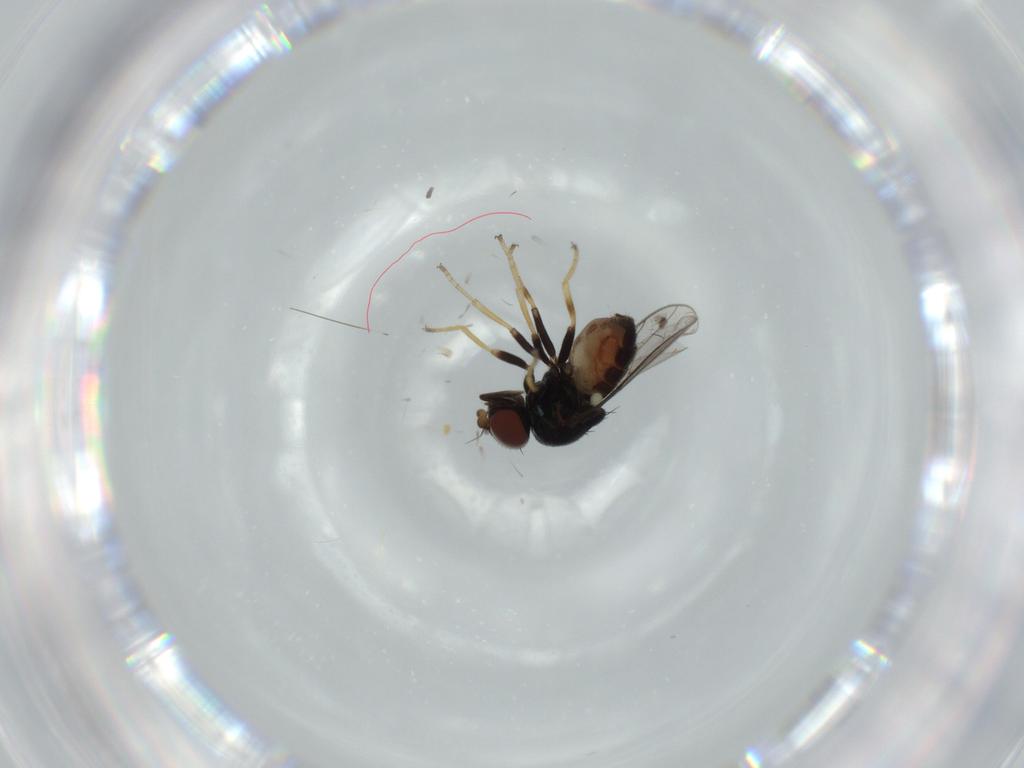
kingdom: Animalia
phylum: Arthropoda
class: Insecta
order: Diptera
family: Chloropidae
